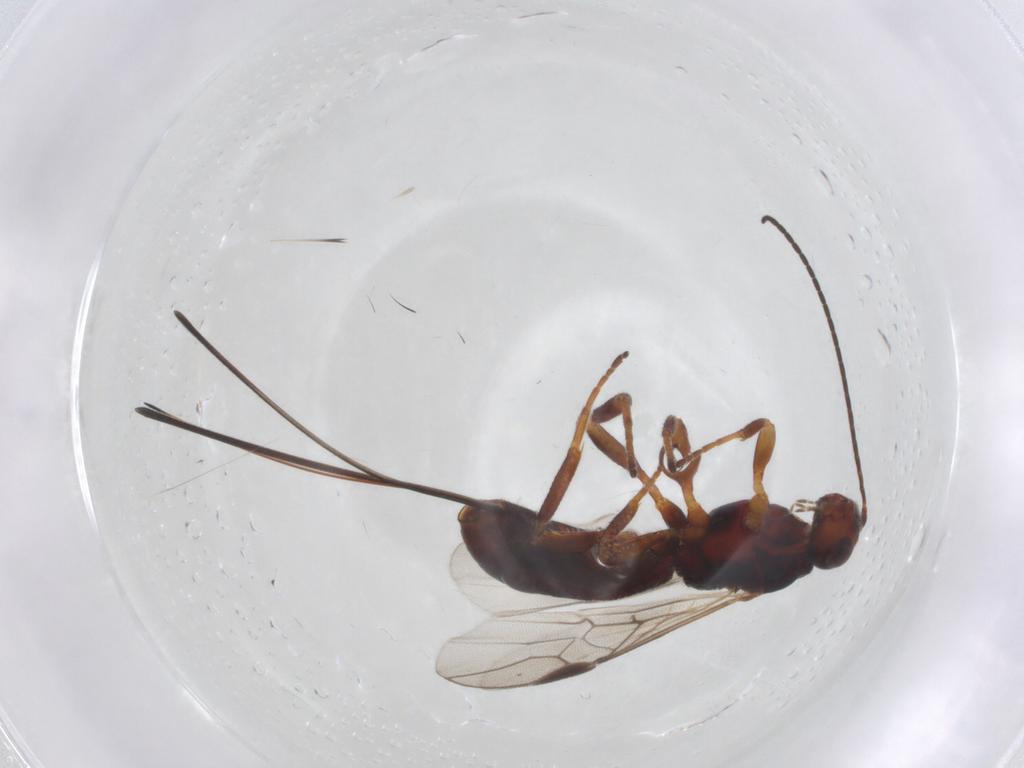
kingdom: Animalia
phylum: Arthropoda
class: Insecta
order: Hymenoptera
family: Braconidae
